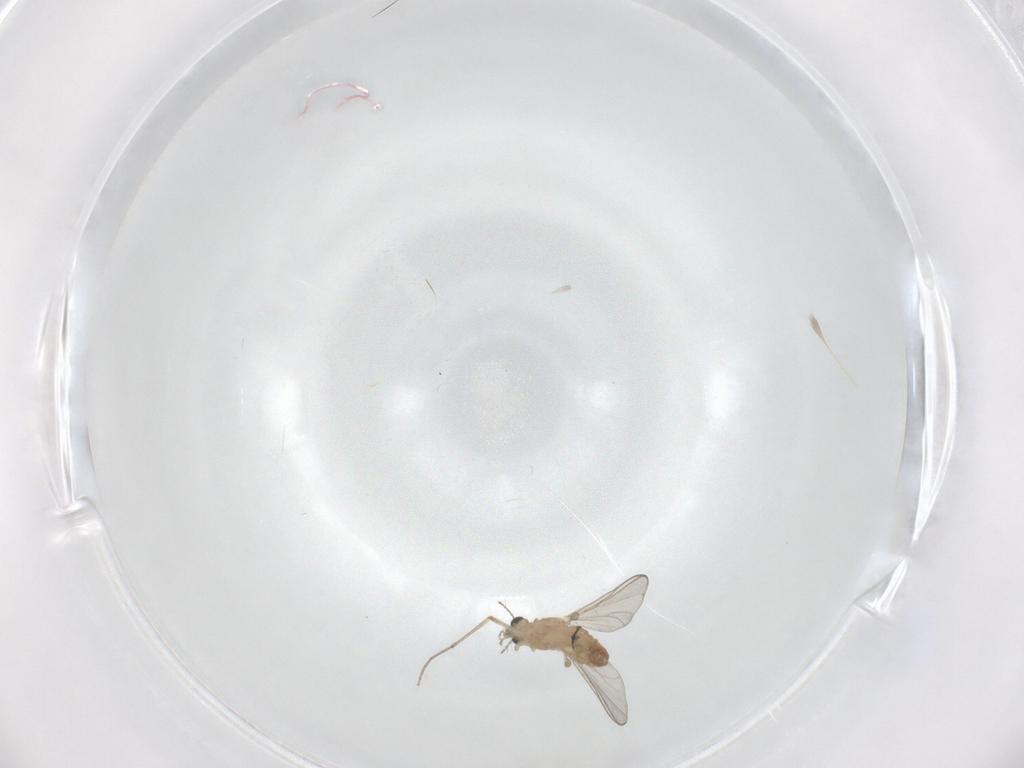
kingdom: Animalia
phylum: Arthropoda
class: Insecta
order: Diptera
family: Chironomidae
